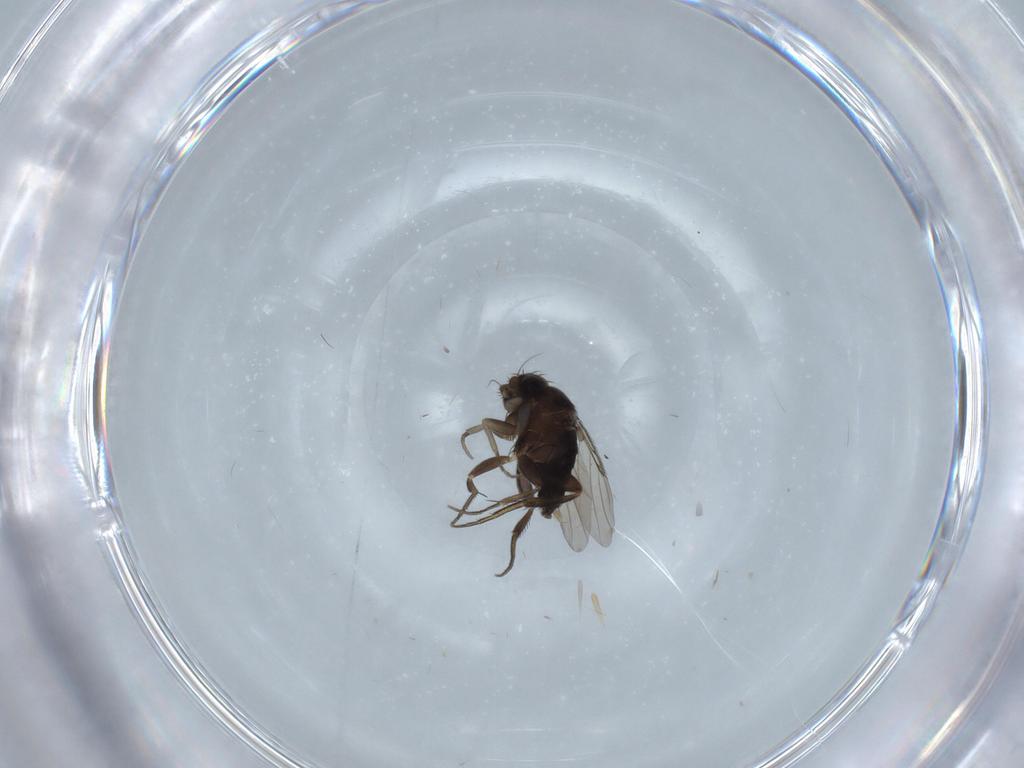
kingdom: Animalia
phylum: Arthropoda
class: Insecta
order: Diptera
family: Phoridae
